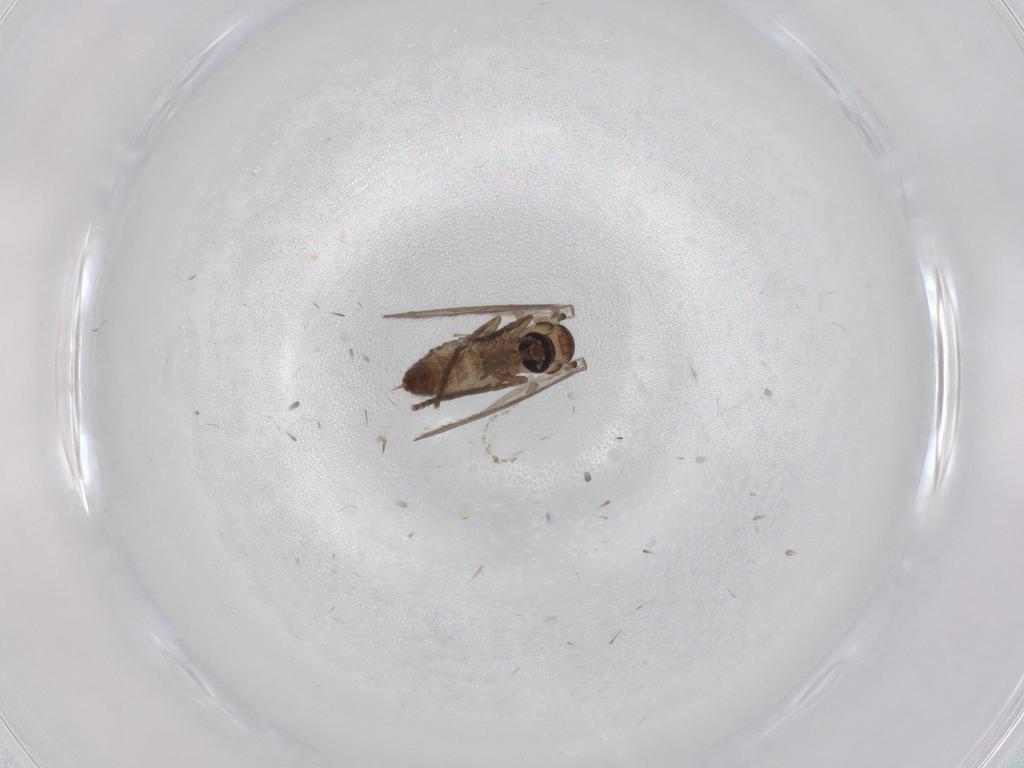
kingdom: Animalia
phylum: Arthropoda
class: Insecta
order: Diptera
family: Psychodidae
